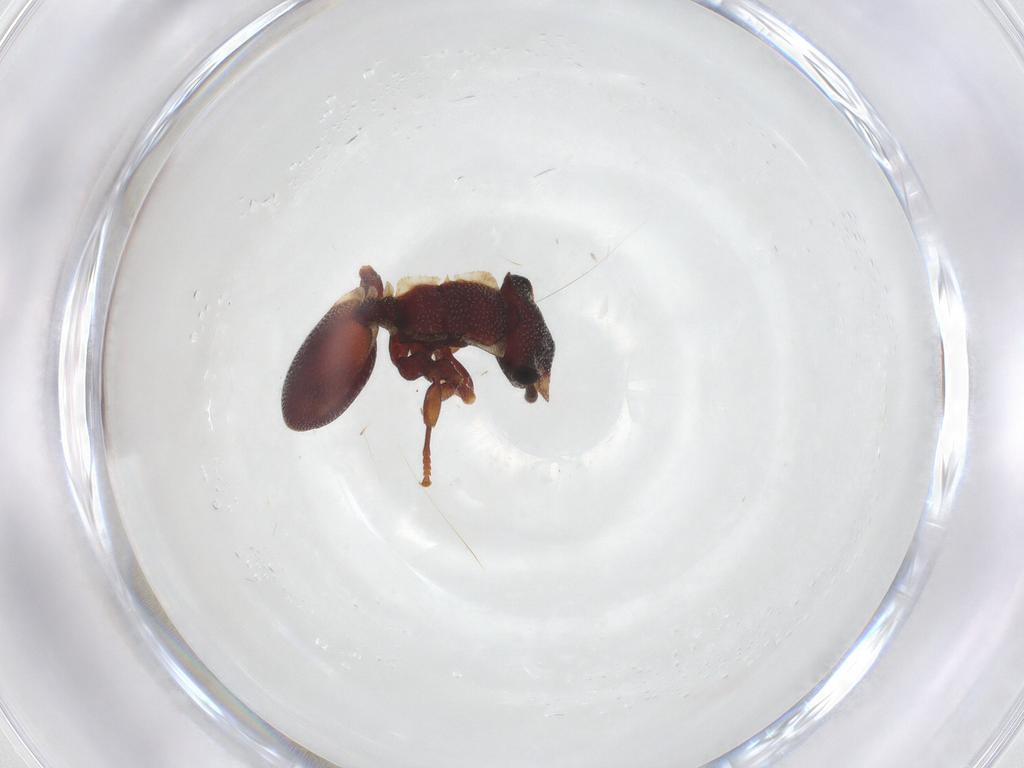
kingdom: Animalia
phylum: Arthropoda
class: Insecta
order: Hymenoptera
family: Formicidae
